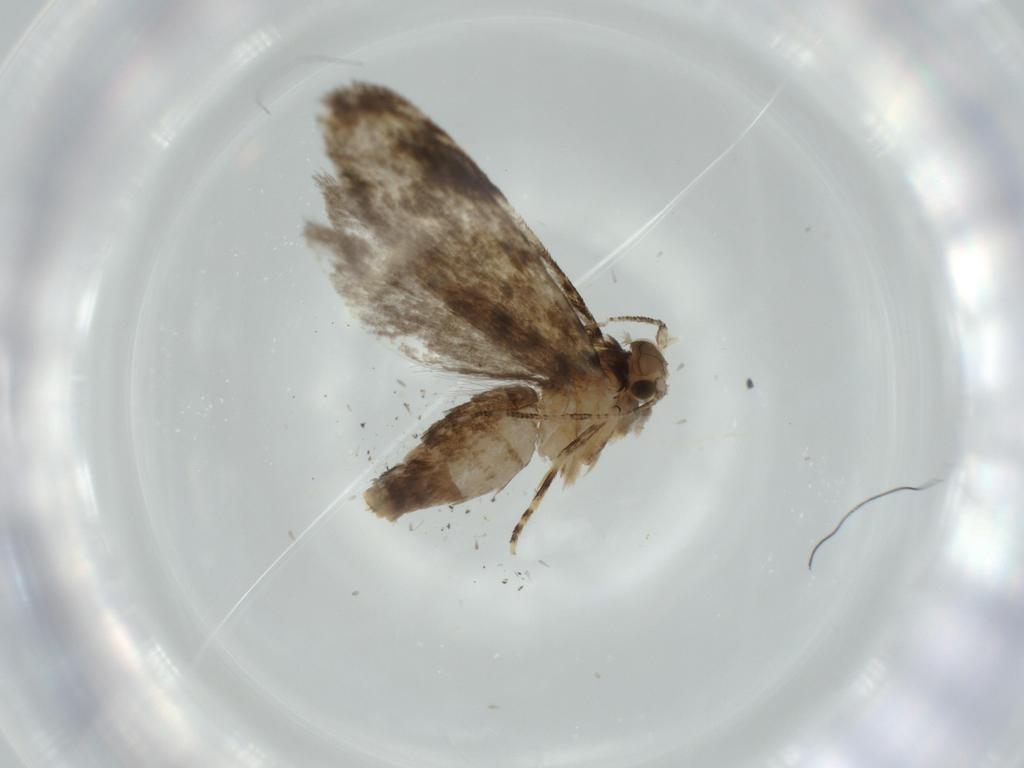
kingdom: Animalia
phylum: Arthropoda
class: Insecta
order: Lepidoptera
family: Tineidae
